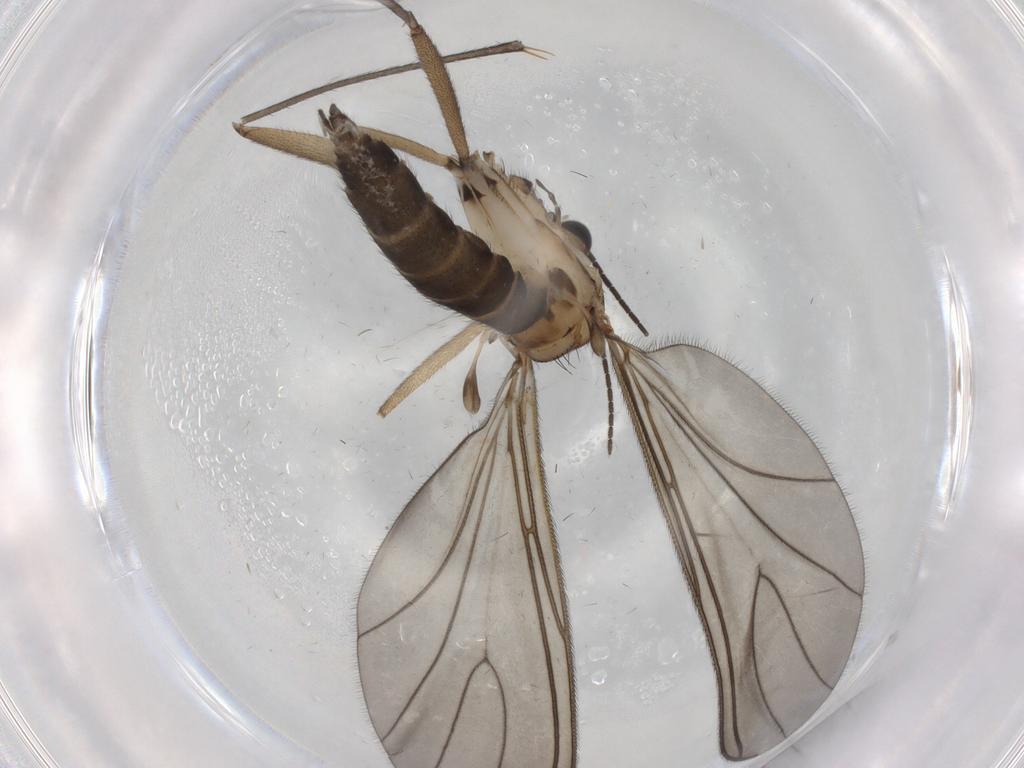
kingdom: Animalia
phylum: Arthropoda
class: Insecta
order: Diptera
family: Sciaridae
